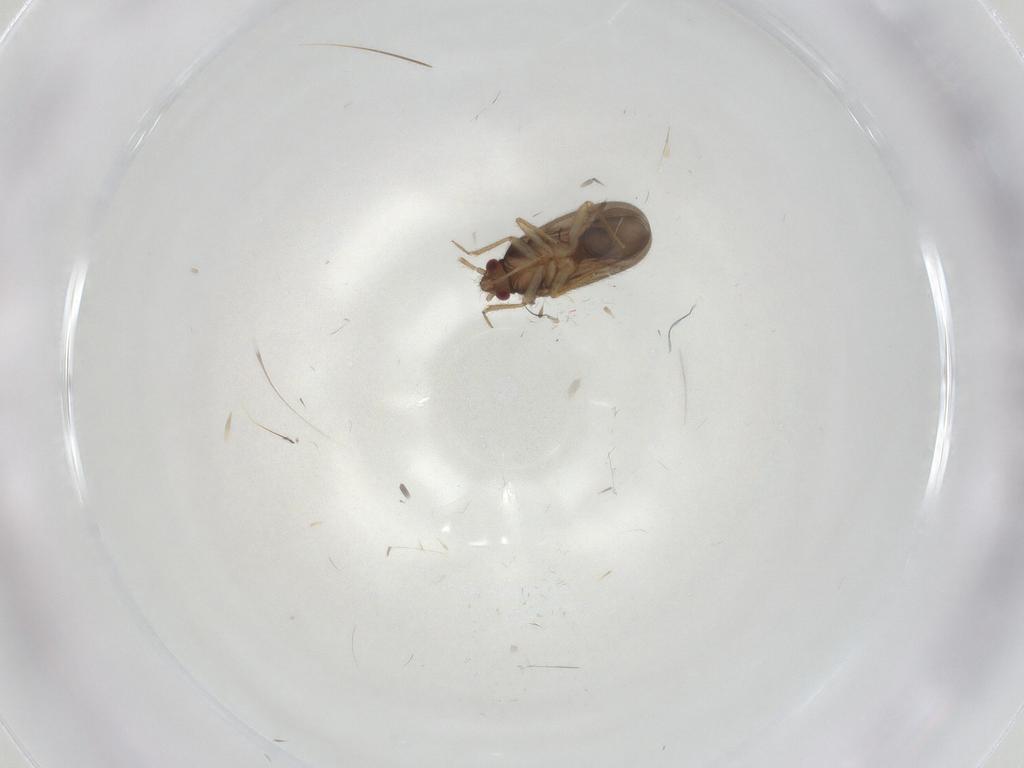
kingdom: Animalia
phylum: Arthropoda
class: Insecta
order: Hemiptera
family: Ceratocombidae
